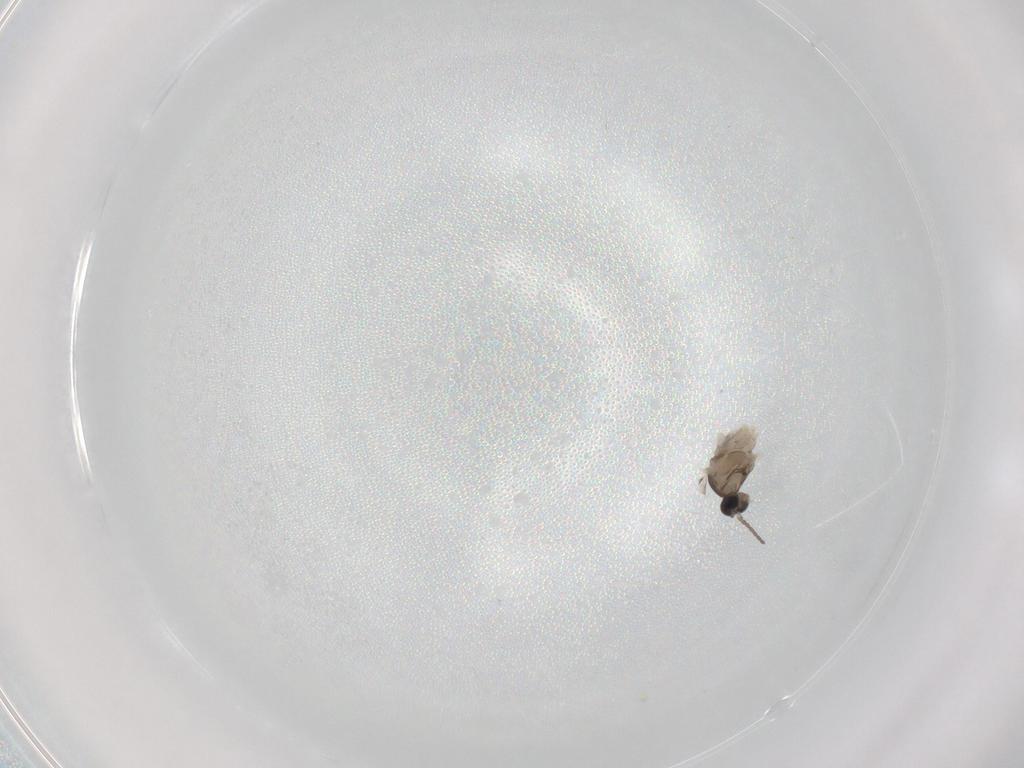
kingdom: Animalia
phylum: Arthropoda
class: Insecta
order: Diptera
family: Cecidomyiidae
